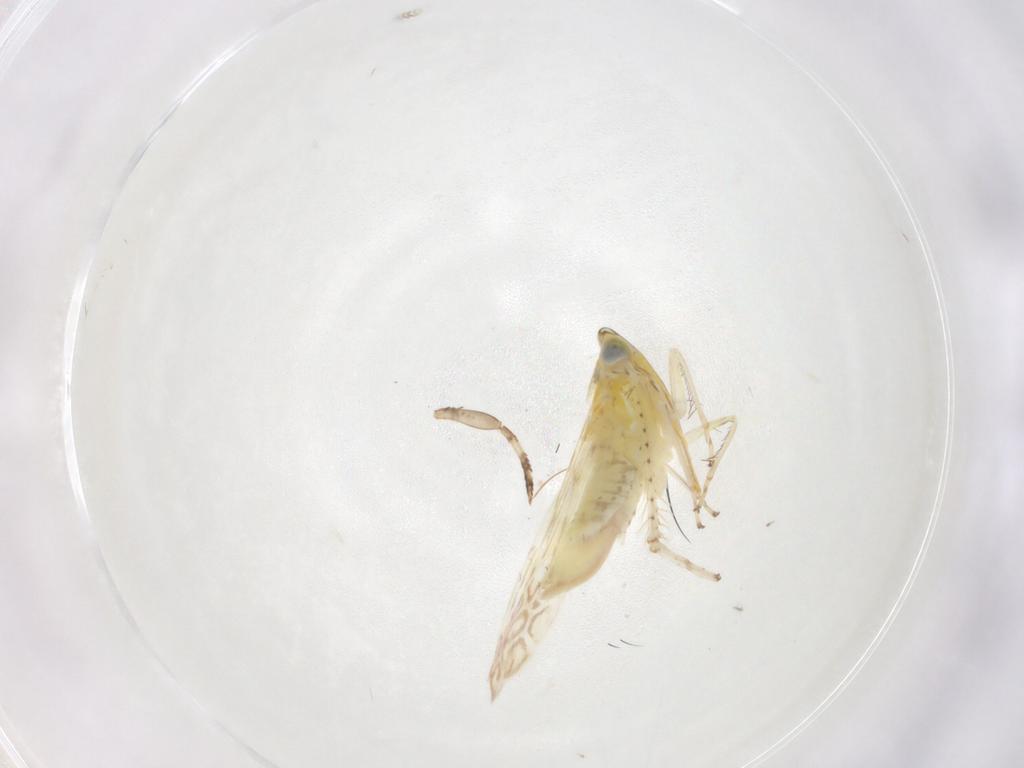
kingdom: Animalia
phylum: Arthropoda
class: Insecta
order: Hemiptera
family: Cicadellidae
